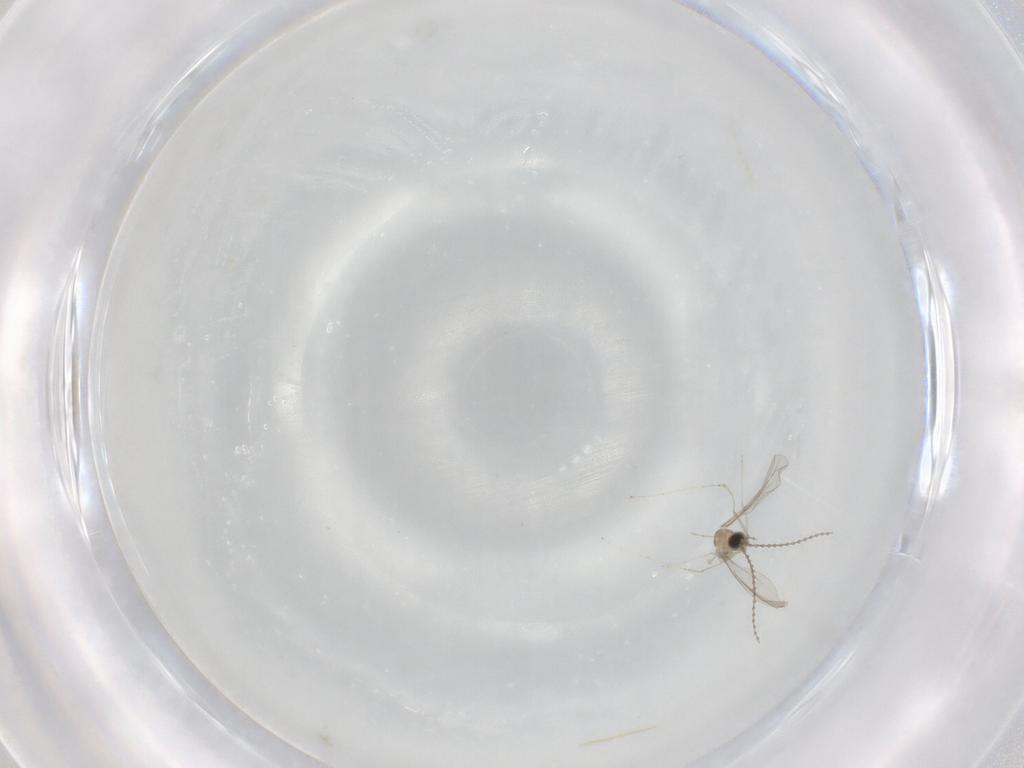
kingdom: Animalia
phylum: Arthropoda
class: Insecta
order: Diptera
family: Cecidomyiidae
